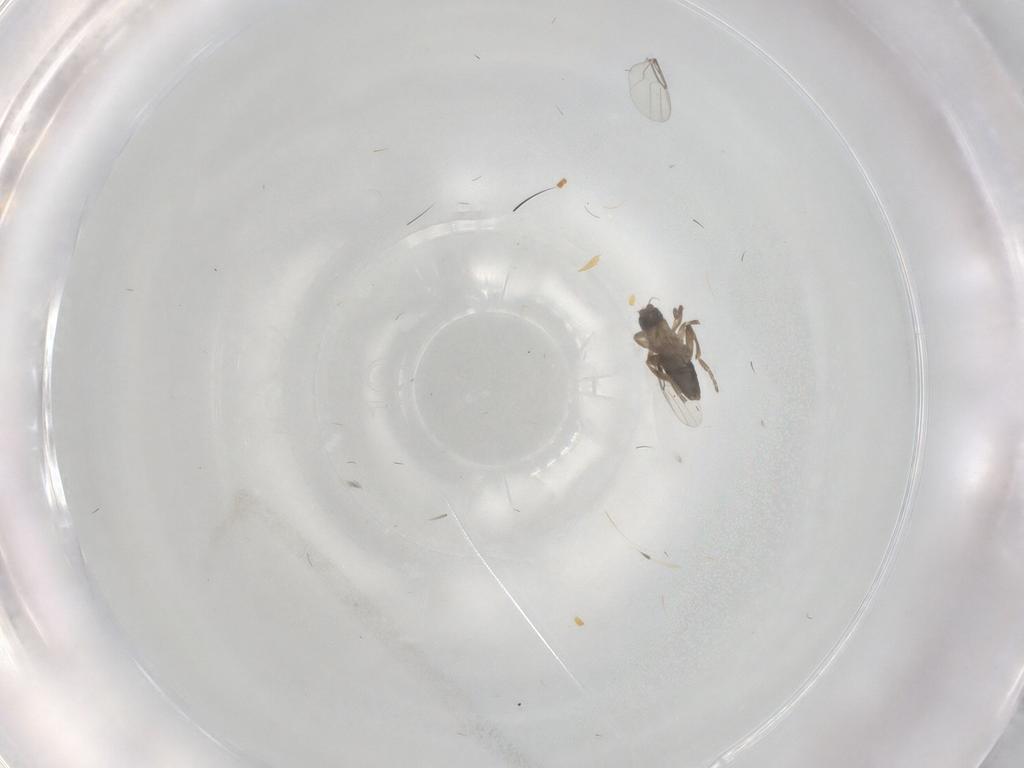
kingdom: Animalia
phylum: Arthropoda
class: Insecta
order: Diptera
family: Phoridae
